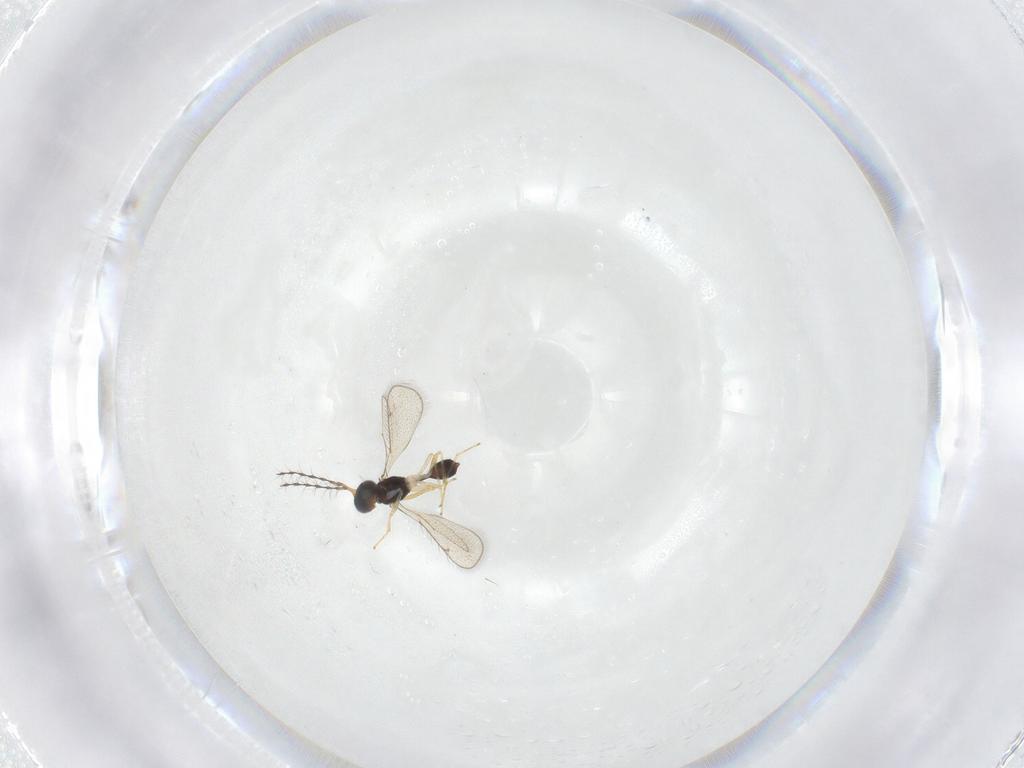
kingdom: Animalia
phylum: Arthropoda
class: Insecta
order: Hymenoptera
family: Diparidae
